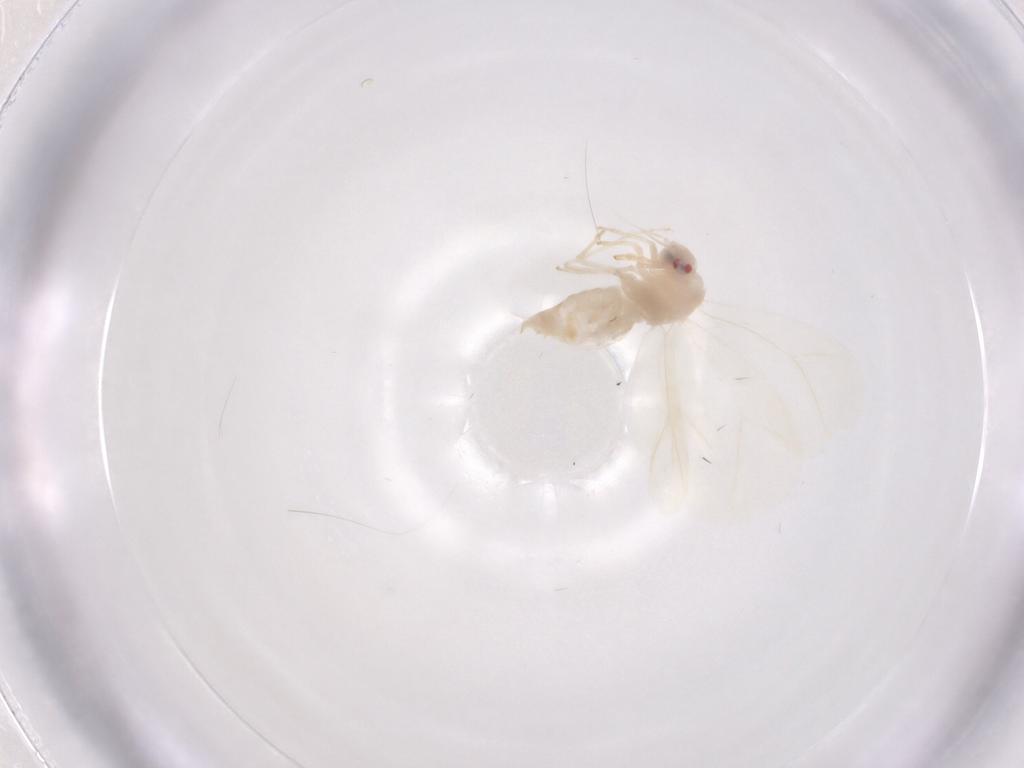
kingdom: Animalia
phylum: Arthropoda
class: Insecta
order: Hemiptera
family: Aleyrodidae
